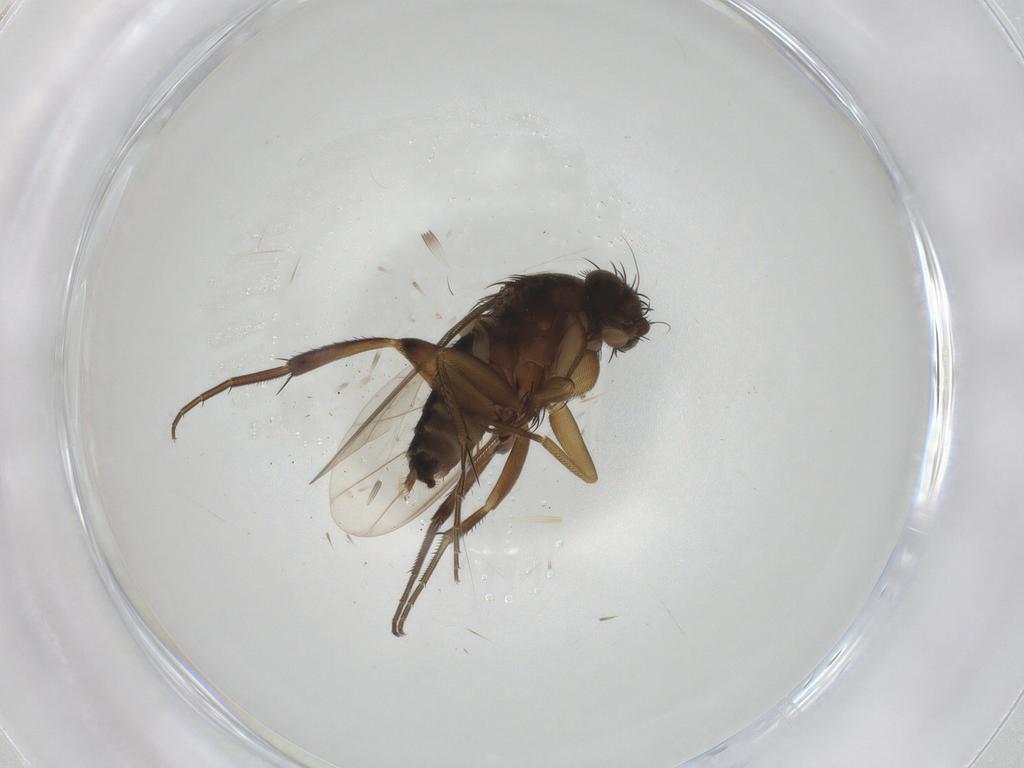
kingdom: Animalia
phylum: Arthropoda
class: Insecta
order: Diptera
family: Phoridae
